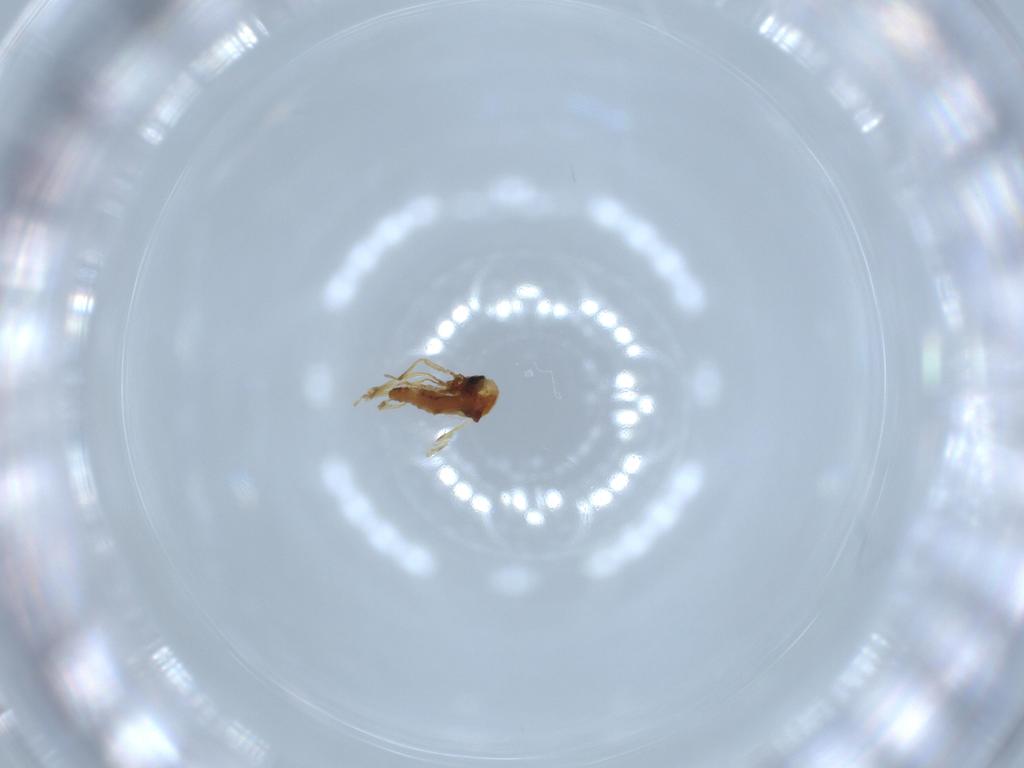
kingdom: Animalia
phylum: Arthropoda
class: Insecta
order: Diptera
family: Ceratopogonidae
